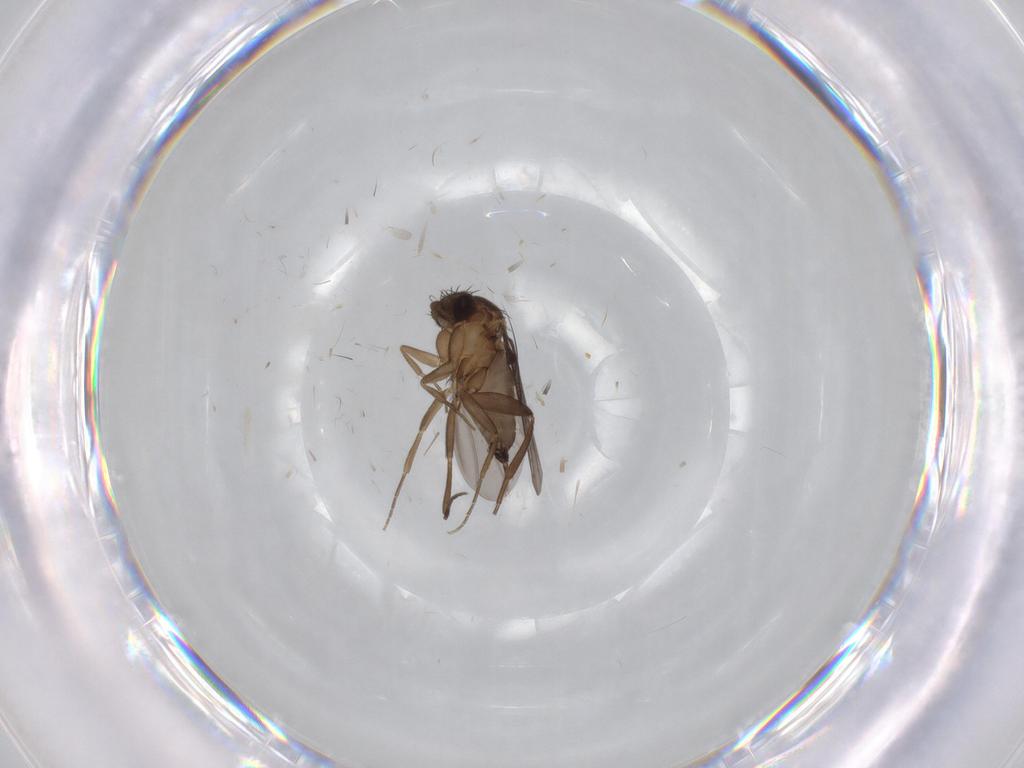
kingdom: Animalia
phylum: Arthropoda
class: Insecta
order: Diptera
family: Phoridae
